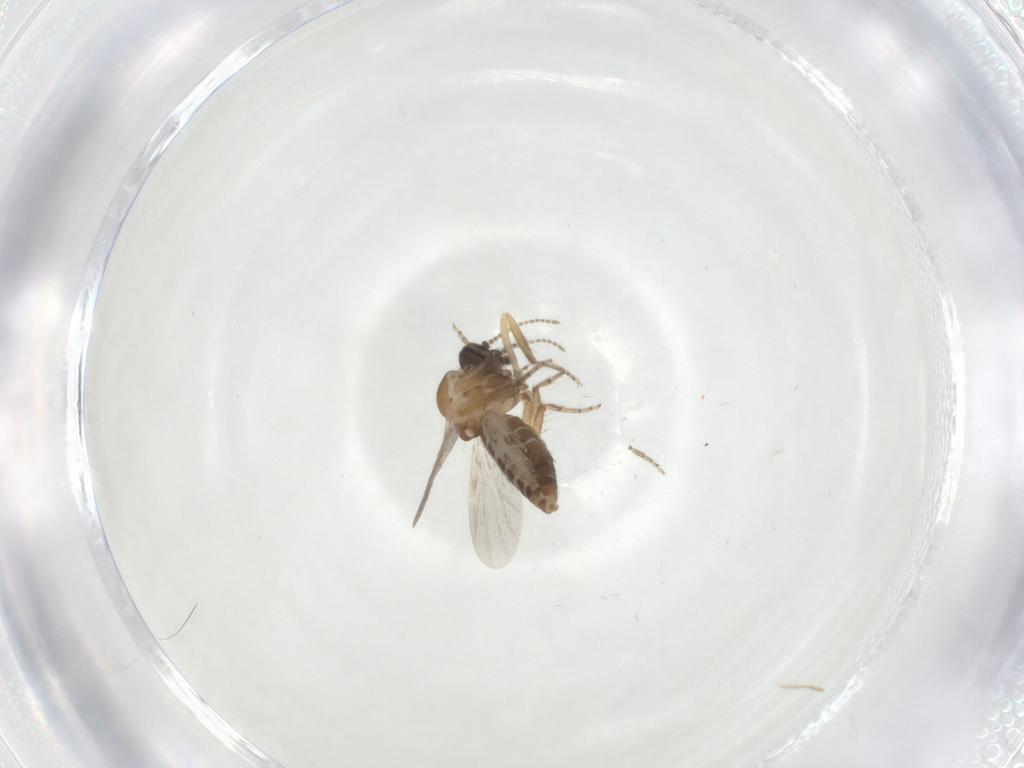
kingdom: Animalia
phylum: Arthropoda
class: Insecta
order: Diptera
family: Ceratopogonidae
